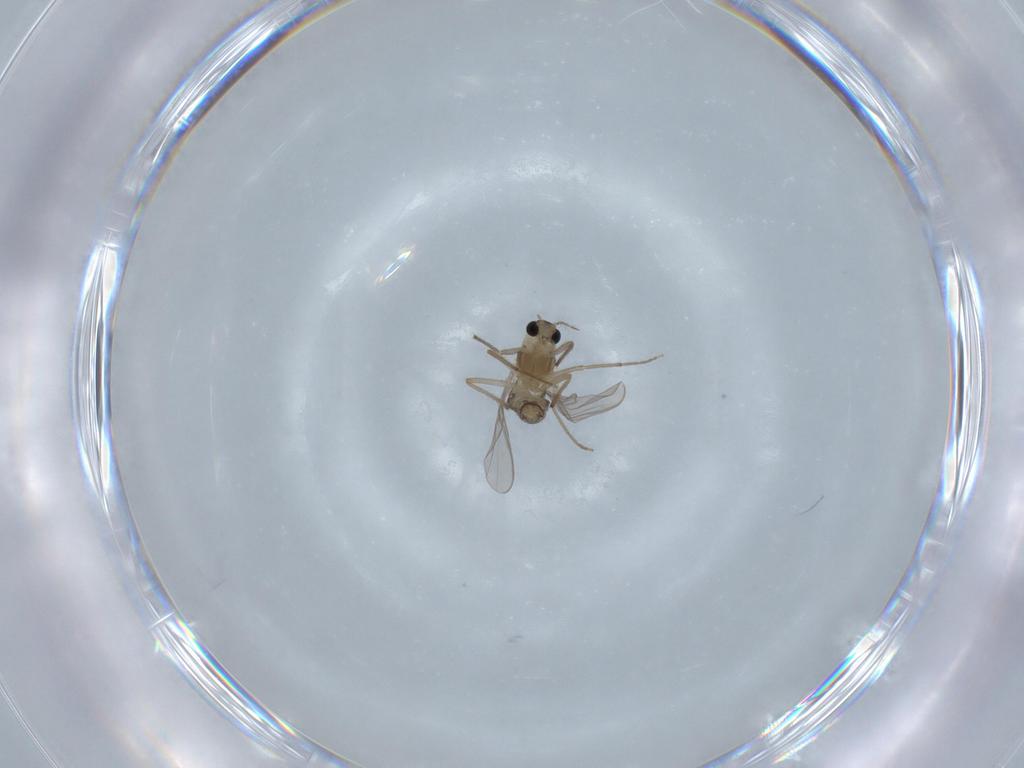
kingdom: Animalia
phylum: Arthropoda
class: Insecta
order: Diptera
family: Chironomidae
